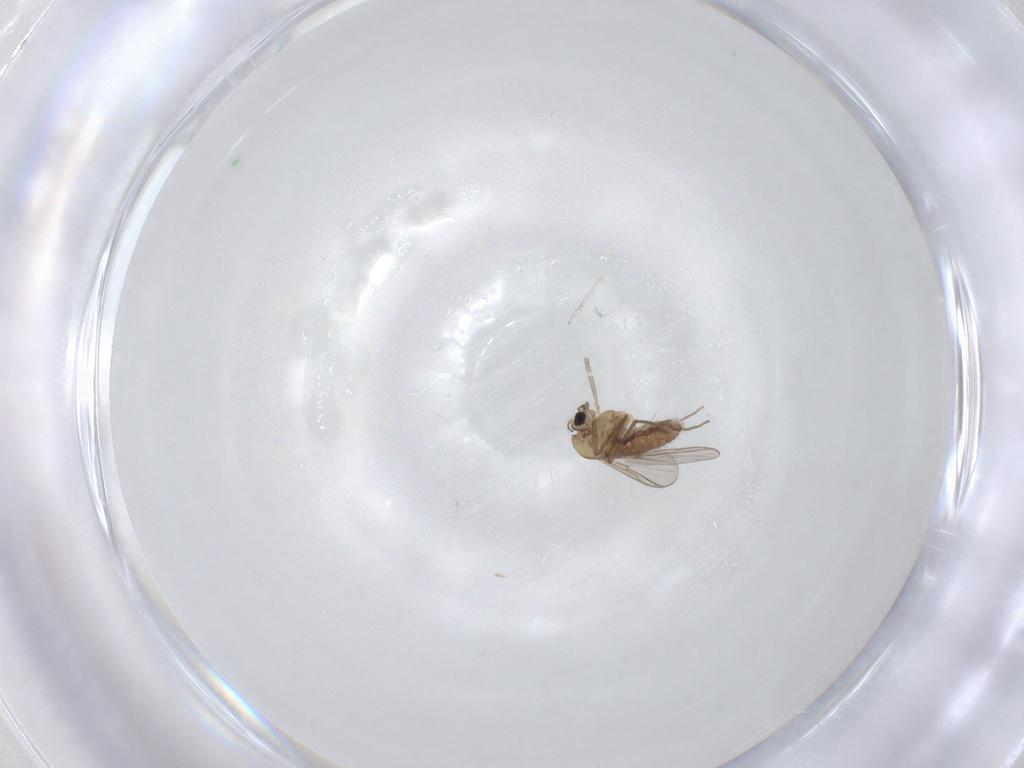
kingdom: Animalia
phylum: Arthropoda
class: Insecta
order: Diptera
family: Chironomidae
